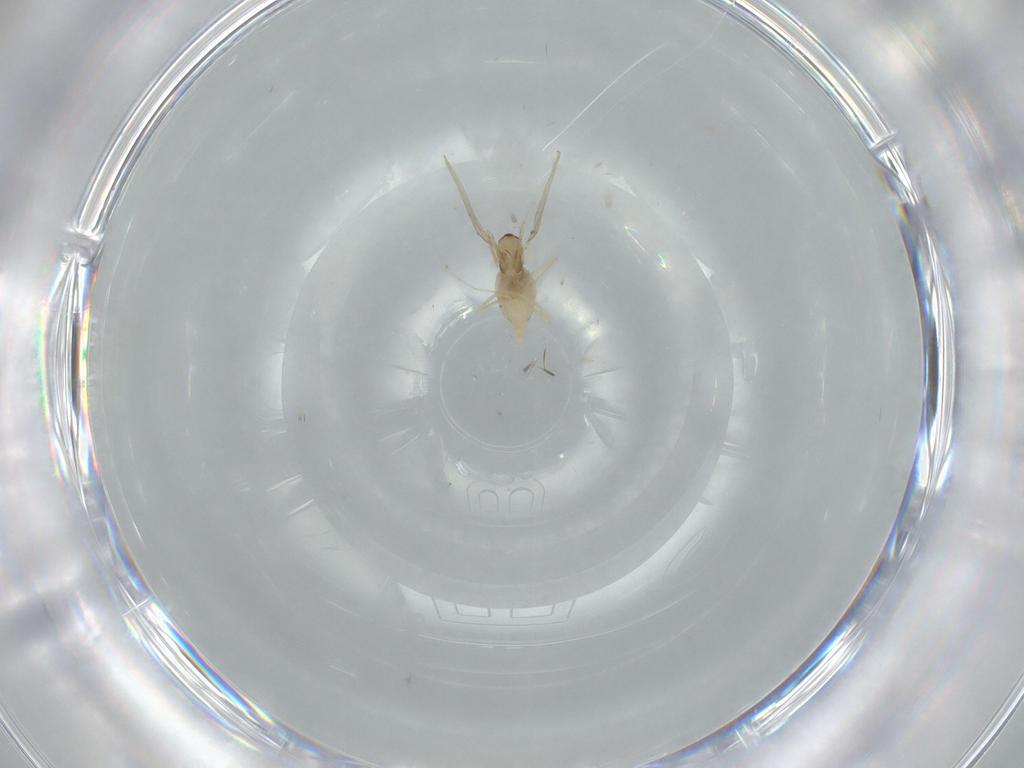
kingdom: Animalia
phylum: Arthropoda
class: Insecta
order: Diptera
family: Cecidomyiidae
